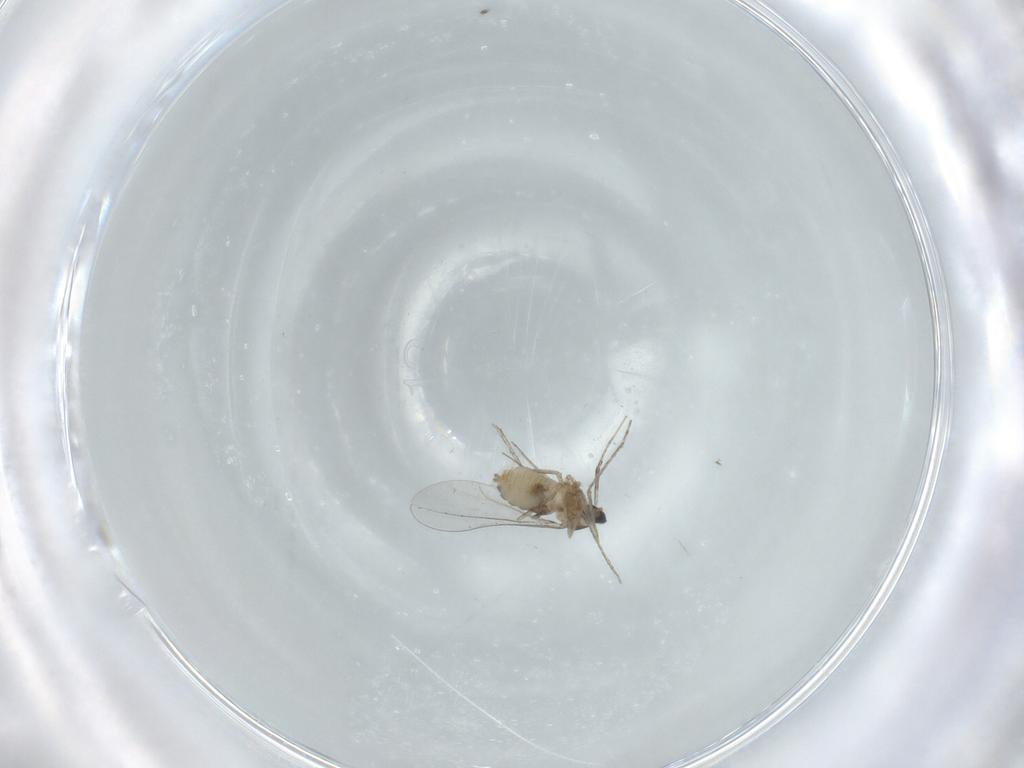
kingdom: Animalia
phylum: Arthropoda
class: Insecta
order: Diptera
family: Cecidomyiidae
